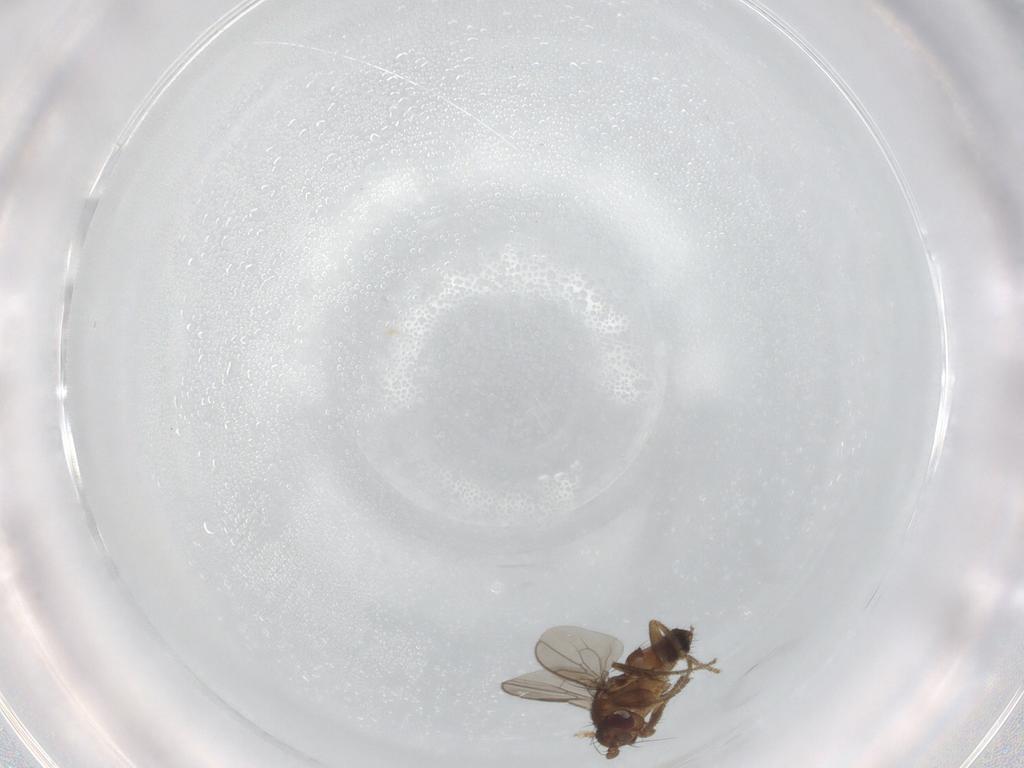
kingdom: Animalia
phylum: Arthropoda
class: Insecta
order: Diptera
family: Sphaeroceridae
